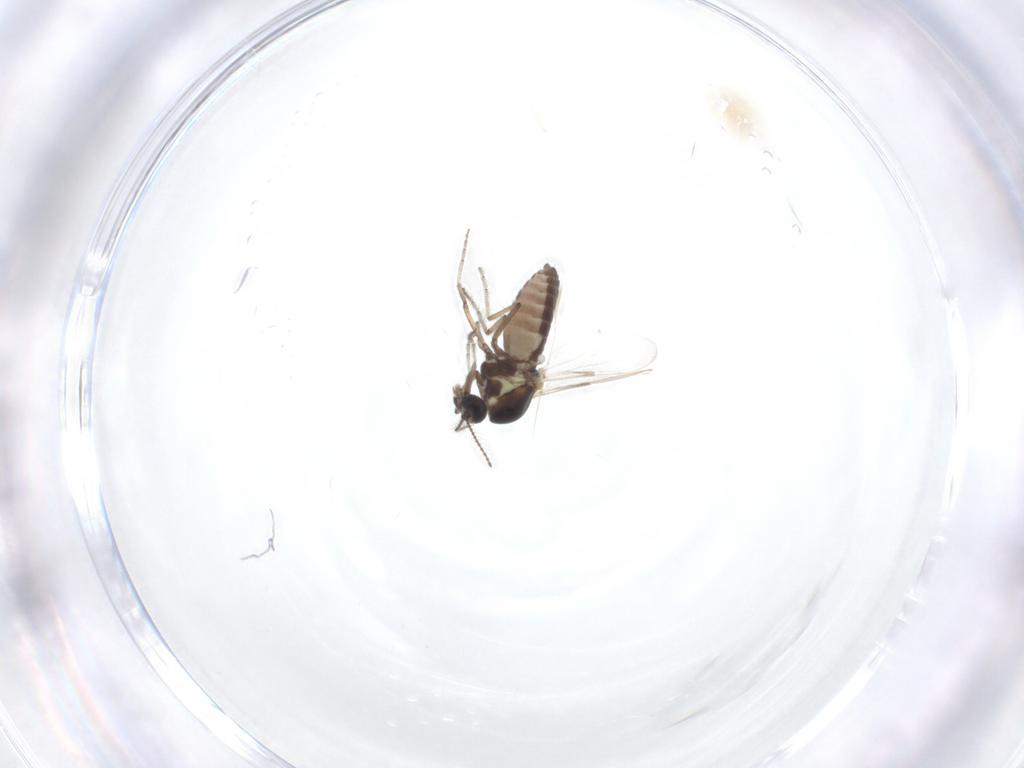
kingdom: Animalia
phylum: Arthropoda
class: Insecta
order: Diptera
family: Ceratopogonidae
